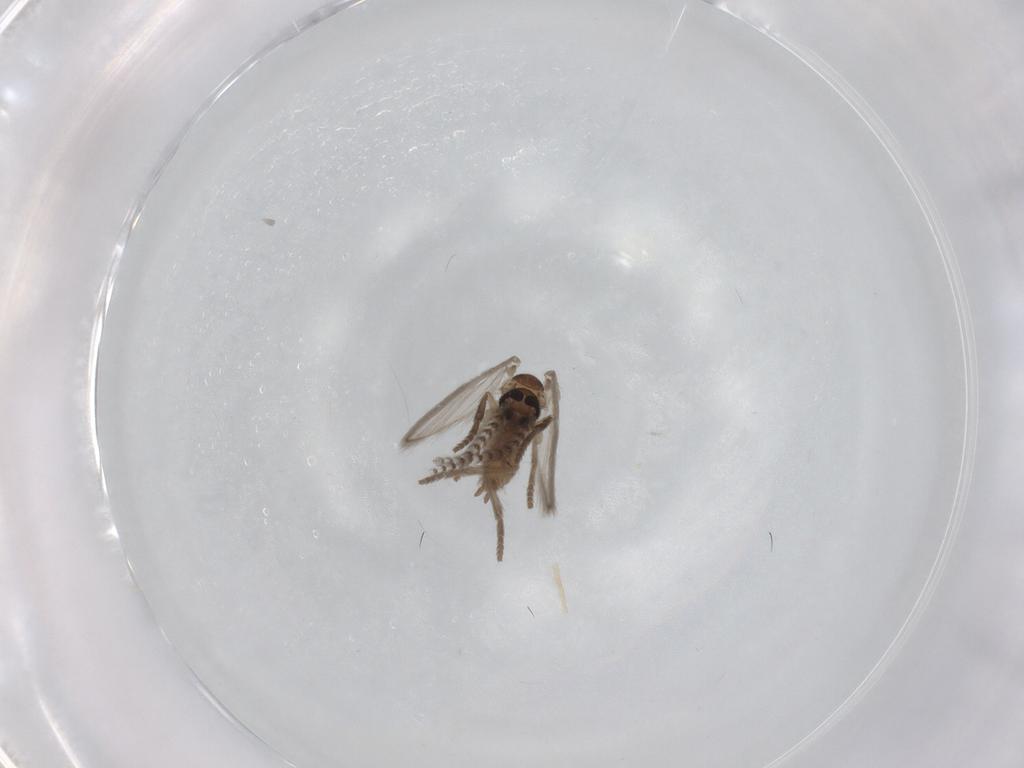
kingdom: Animalia
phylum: Arthropoda
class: Insecta
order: Diptera
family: Psychodidae
